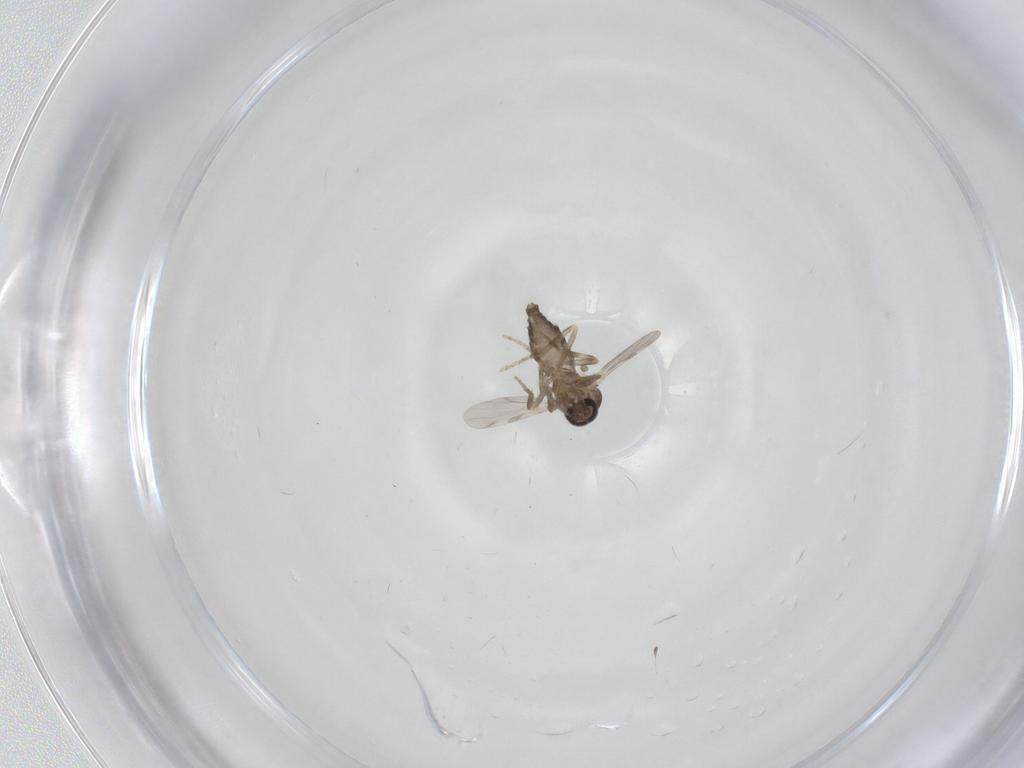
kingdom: Animalia
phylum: Arthropoda
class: Insecta
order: Diptera
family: Ceratopogonidae
